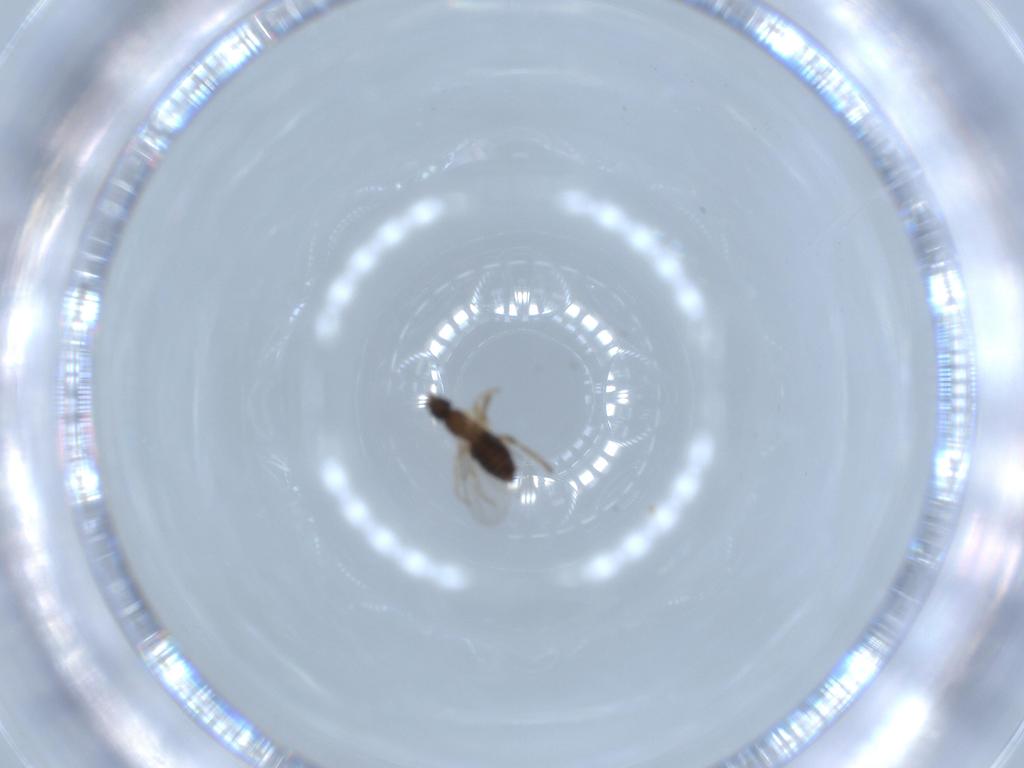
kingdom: Animalia
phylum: Arthropoda
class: Insecta
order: Diptera
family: Phoridae
